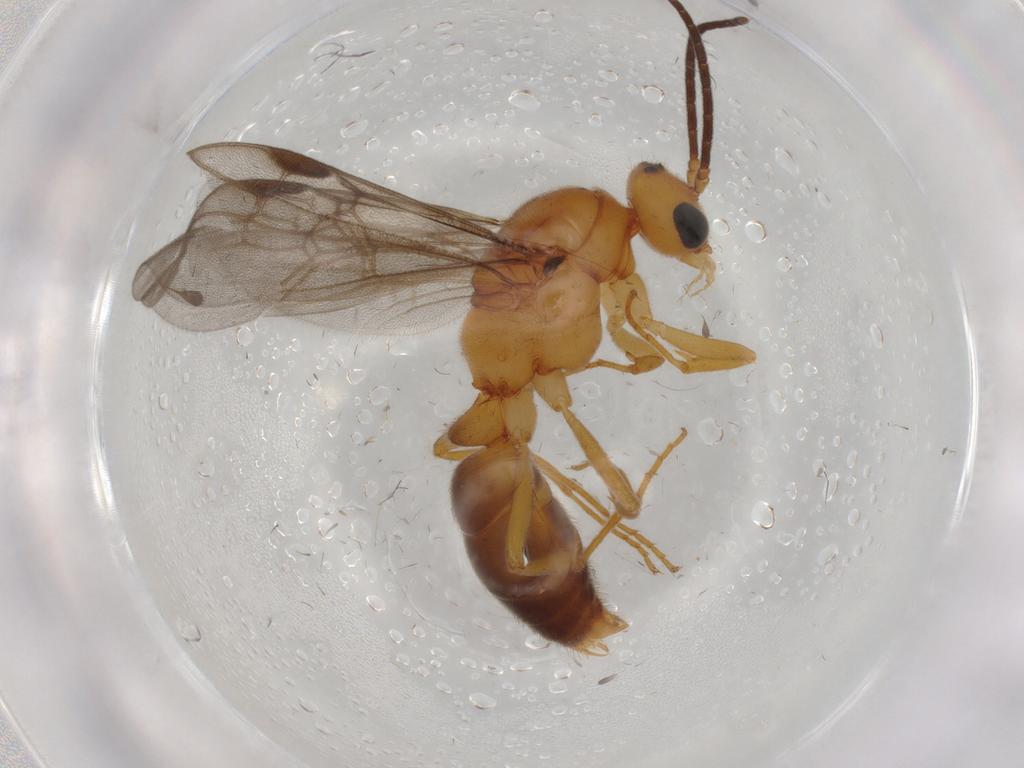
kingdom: Animalia
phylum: Arthropoda
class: Insecta
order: Hymenoptera
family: Formicidae
